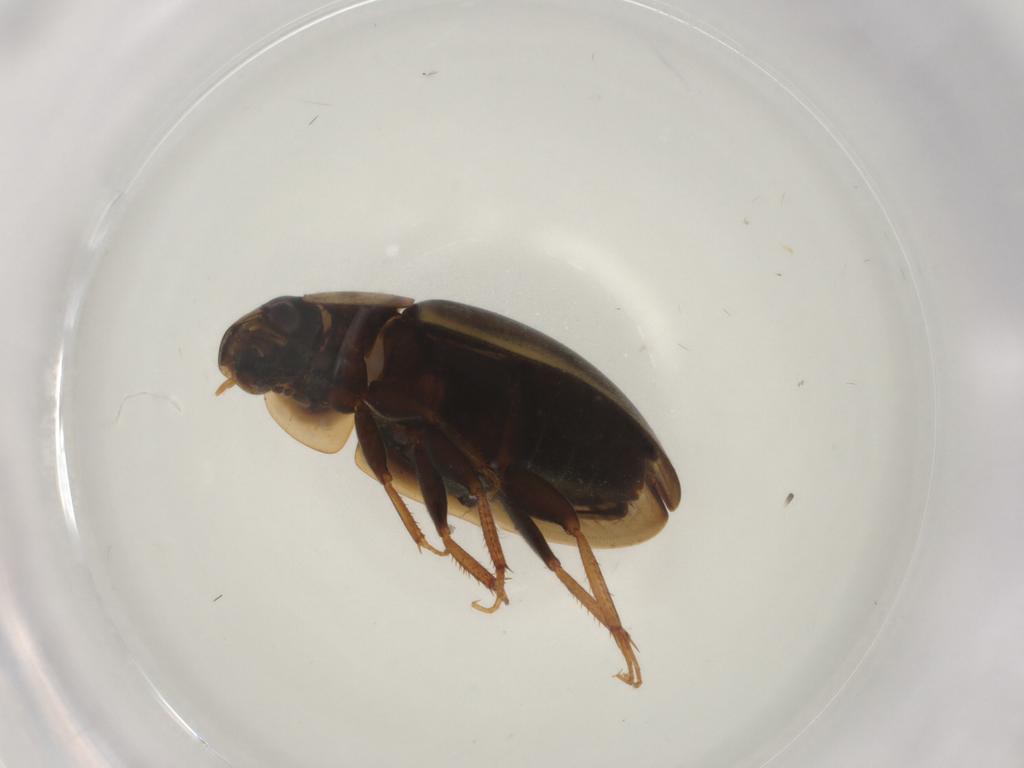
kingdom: Animalia
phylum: Arthropoda
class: Insecta
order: Coleoptera
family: Hydrophilidae
